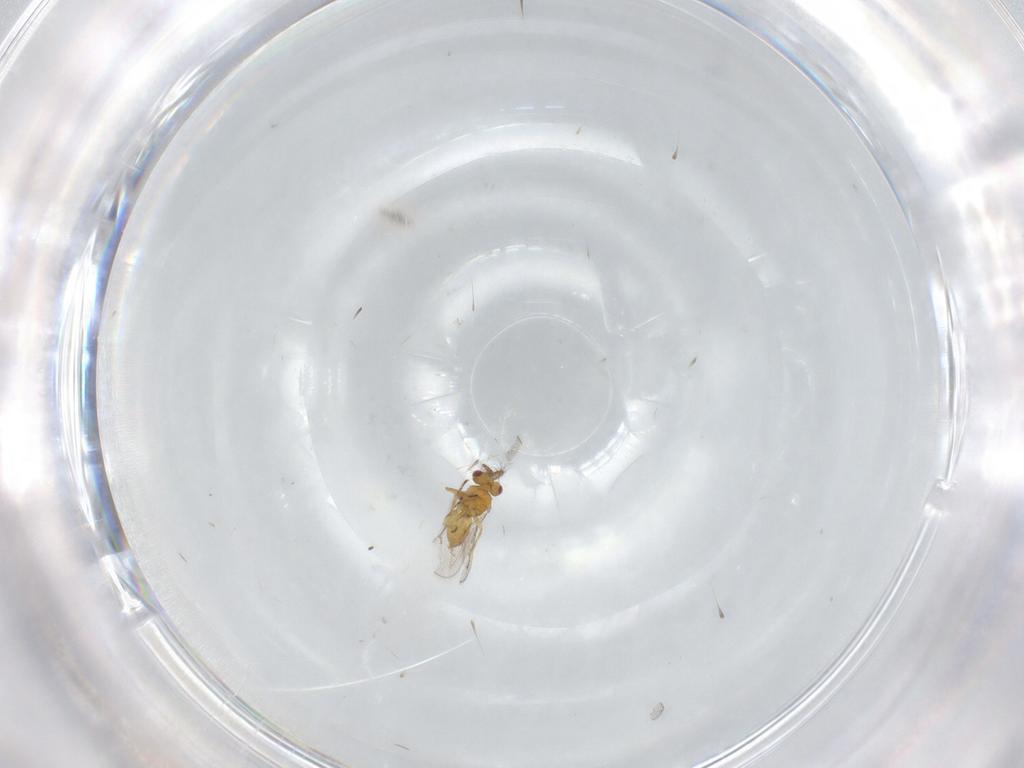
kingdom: Animalia
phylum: Arthropoda
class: Insecta
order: Hymenoptera
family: Eulophidae
